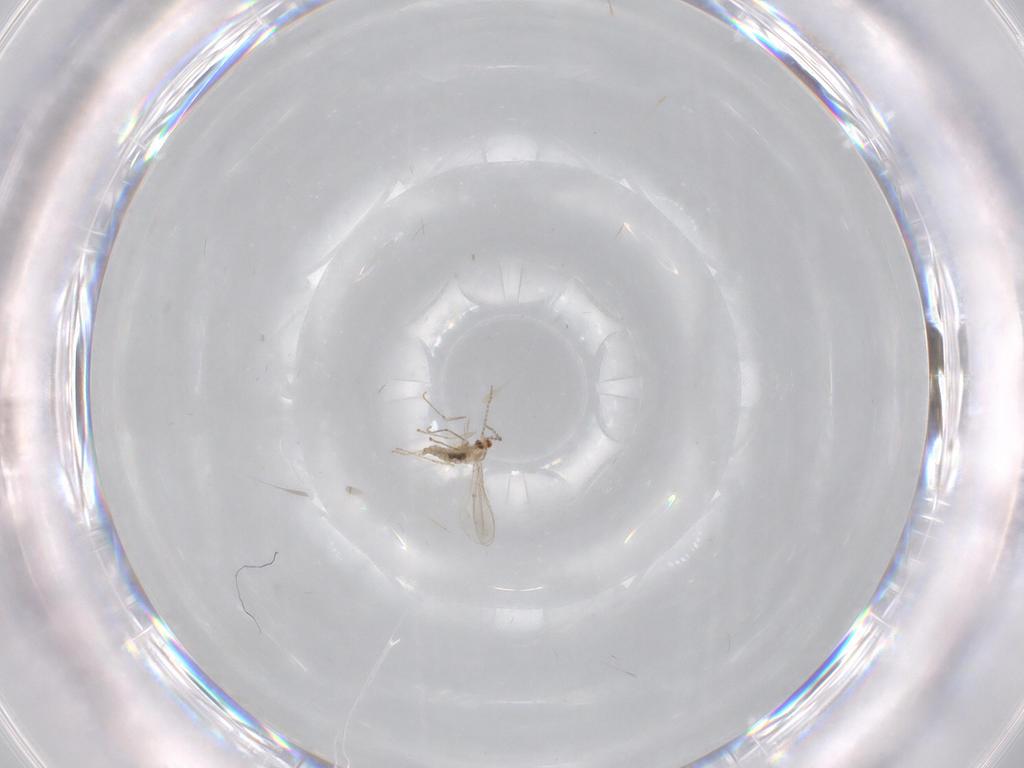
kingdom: Animalia
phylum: Arthropoda
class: Insecta
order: Diptera
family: Cecidomyiidae
